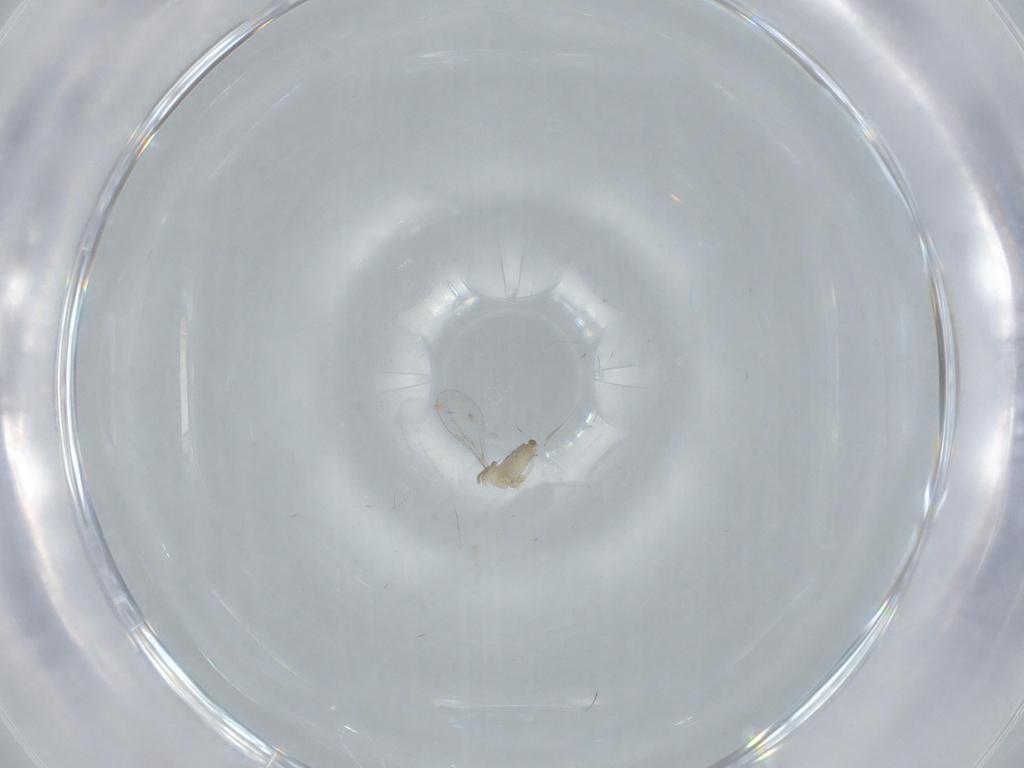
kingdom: Animalia
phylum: Arthropoda
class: Insecta
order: Diptera
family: Cecidomyiidae
